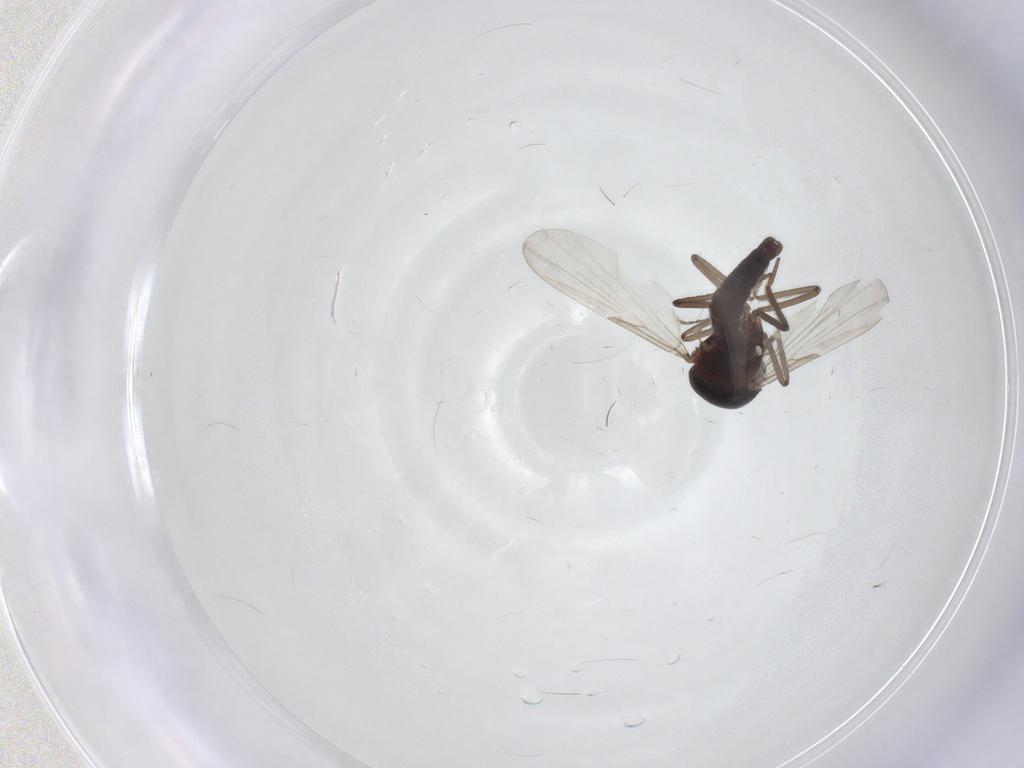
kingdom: Animalia
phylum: Arthropoda
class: Insecta
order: Diptera
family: Ceratopogonidae
